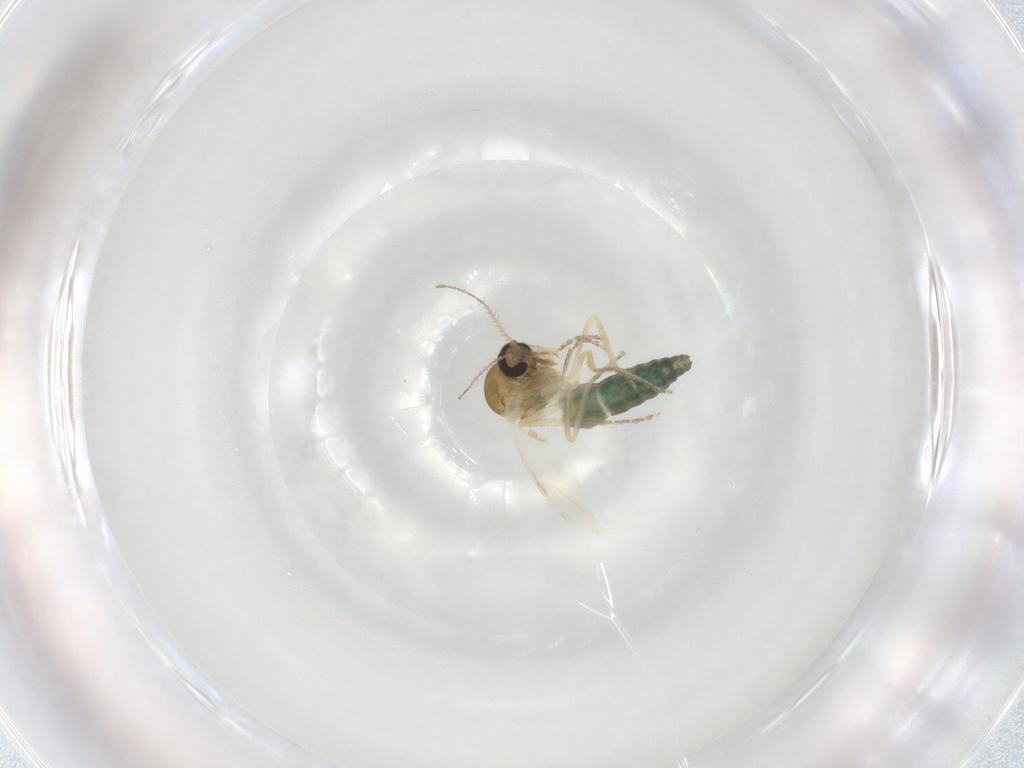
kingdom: Animalia
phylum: Arthropoda
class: Insecta
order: Diptera
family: Ceratopogonidae
